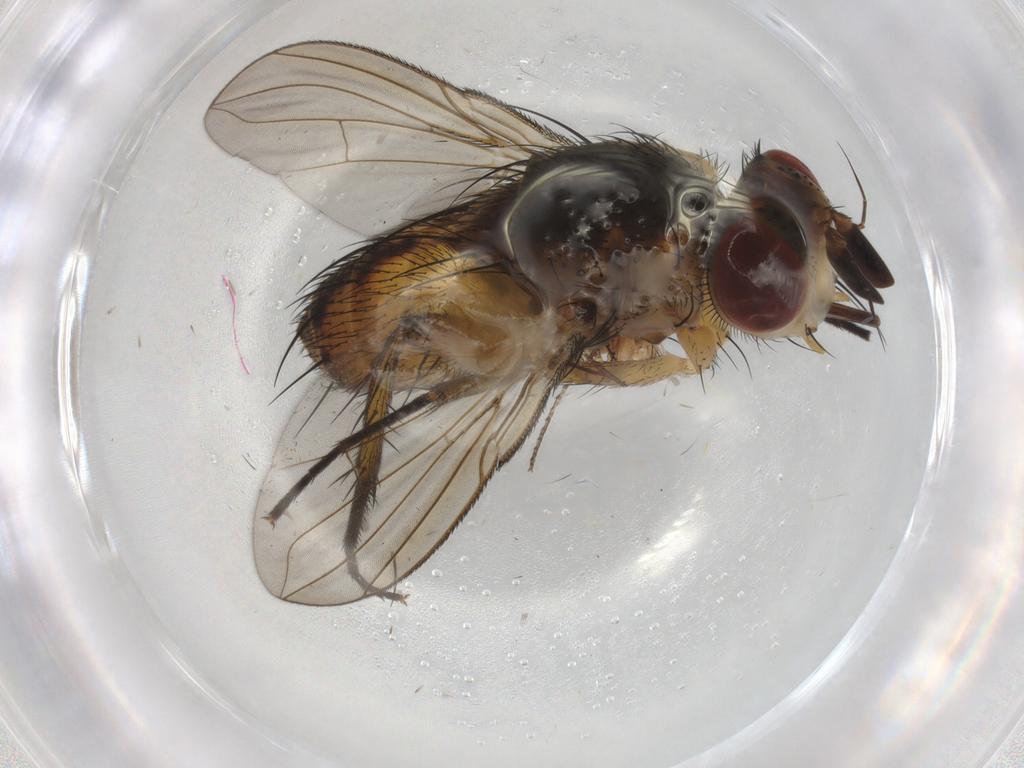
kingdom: Animalia
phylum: Arthropoda
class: Insecta
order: Diptera
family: Tachinidae
